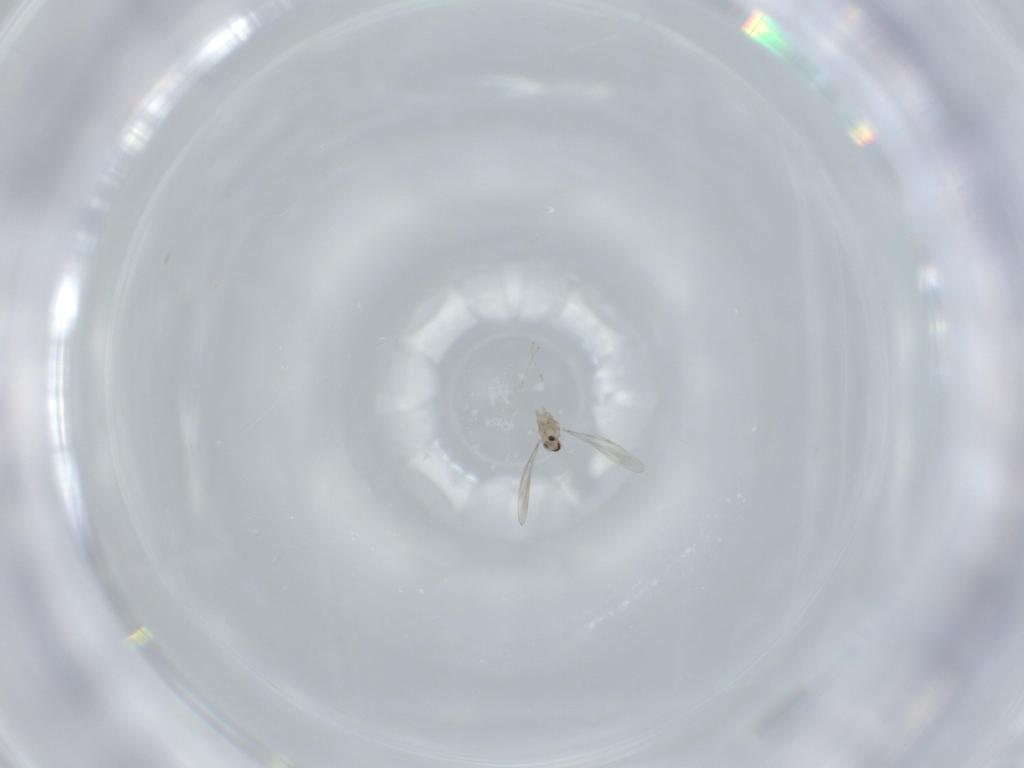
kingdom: Animalia
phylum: Arthropoda
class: Insecta
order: Diptera
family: Sciaridae
